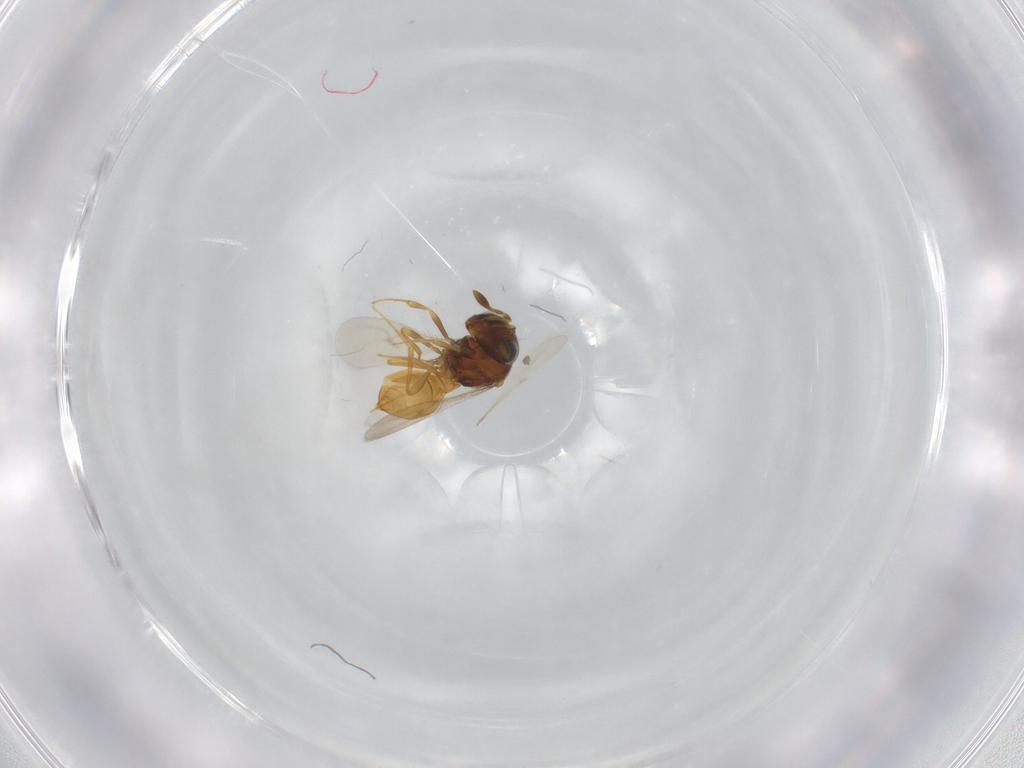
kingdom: Animalia
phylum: Arthropoda
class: Insecta
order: Hymenoptera
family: Scelionidae
